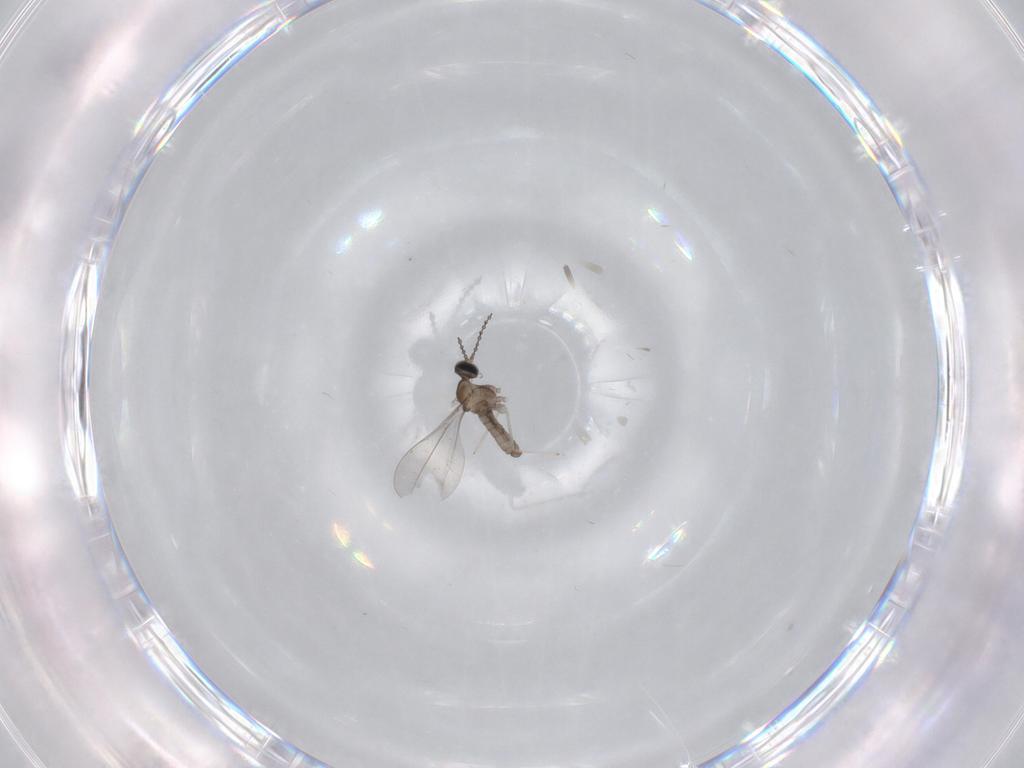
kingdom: Animalia
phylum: Arthropoda
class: Insecta
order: Diptera
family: Cecidomyiidae
